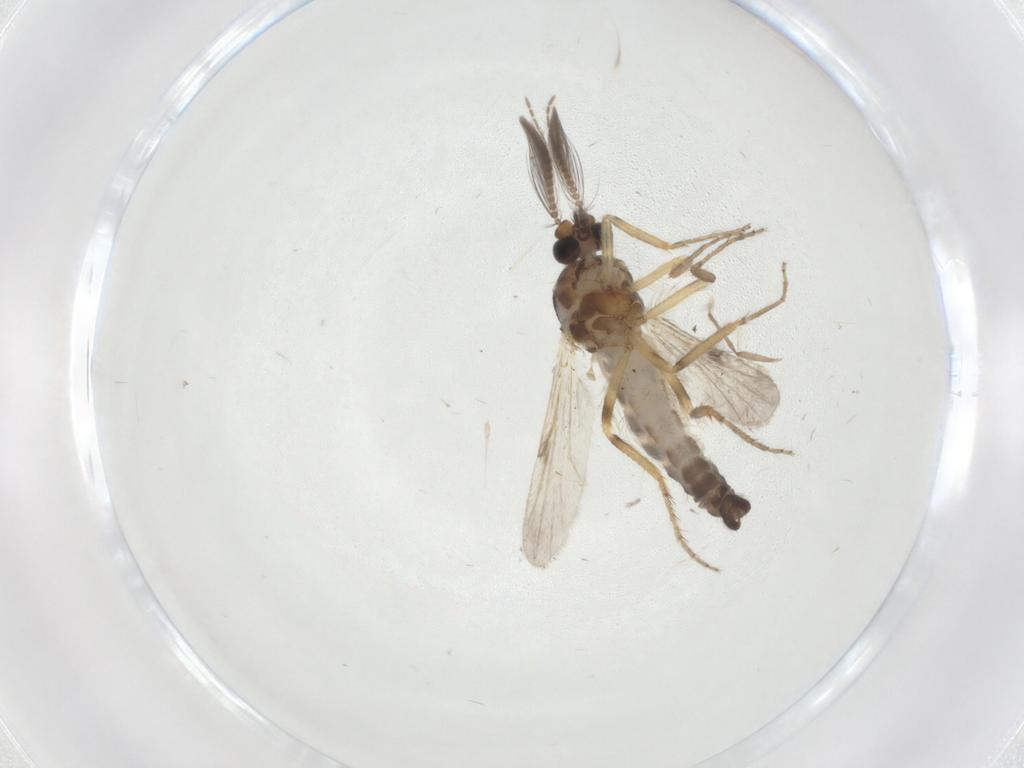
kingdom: Animalia
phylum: Arthropoda
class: Insecta
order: Diptera
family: Ceratopogonidae
